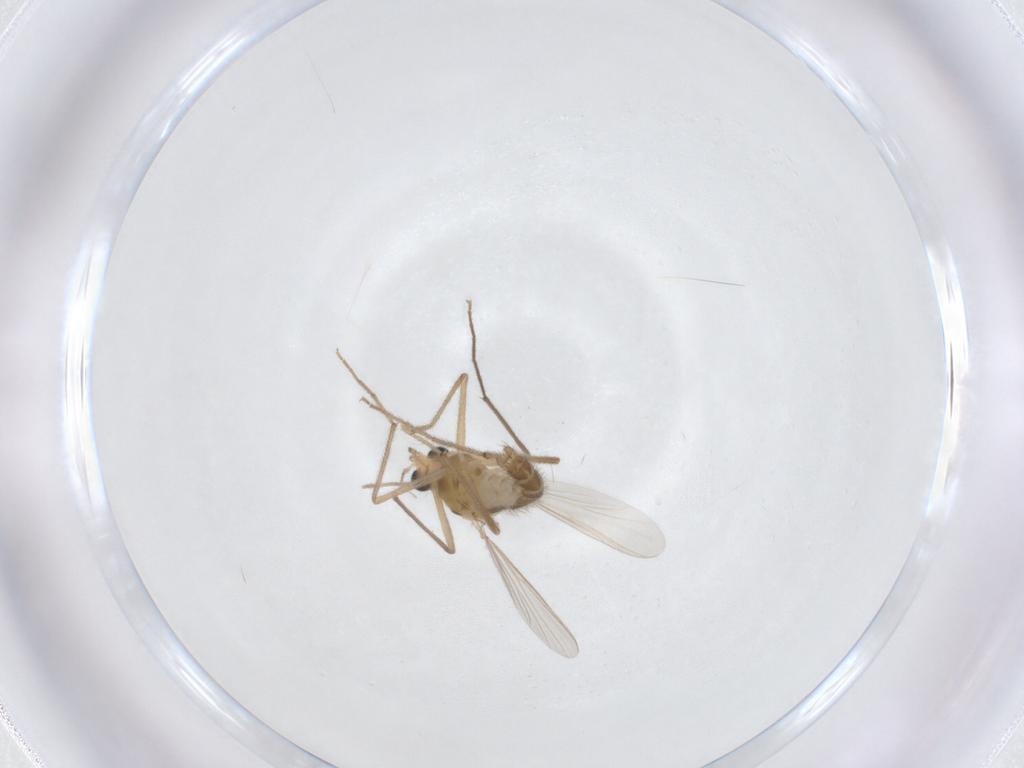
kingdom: Animalia
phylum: Arthropoda
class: Insecta
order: Diptera
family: Chironomidae
